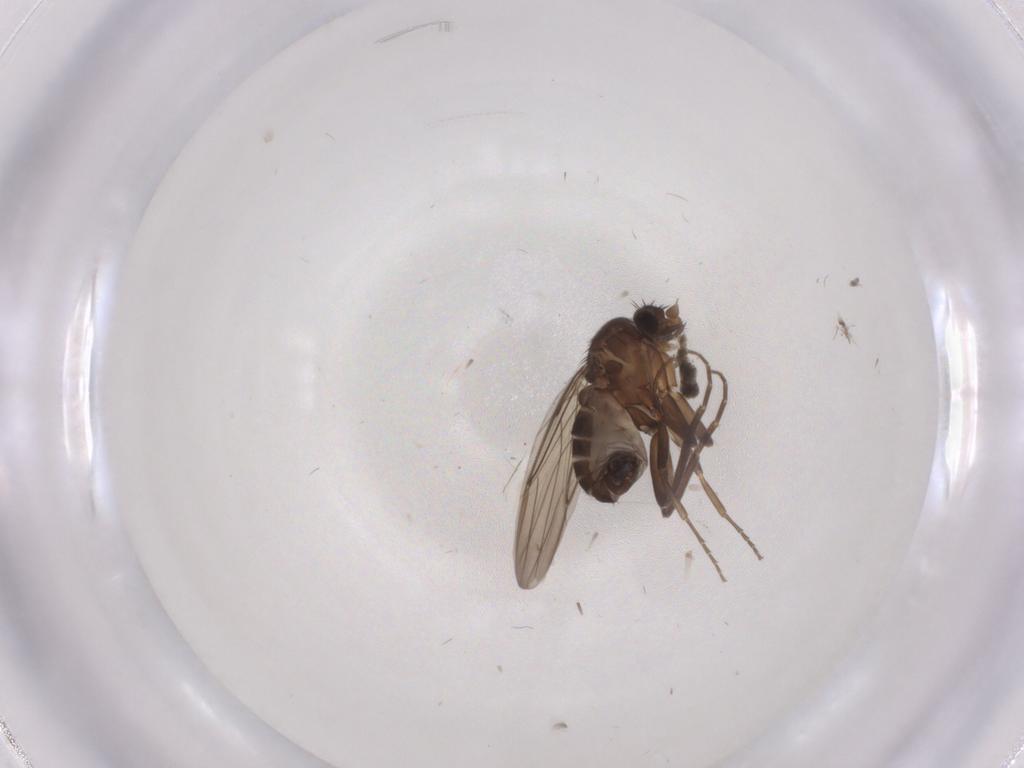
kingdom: Animalia
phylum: Arthropoda
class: Insecta
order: Diptera
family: Sciaridae
